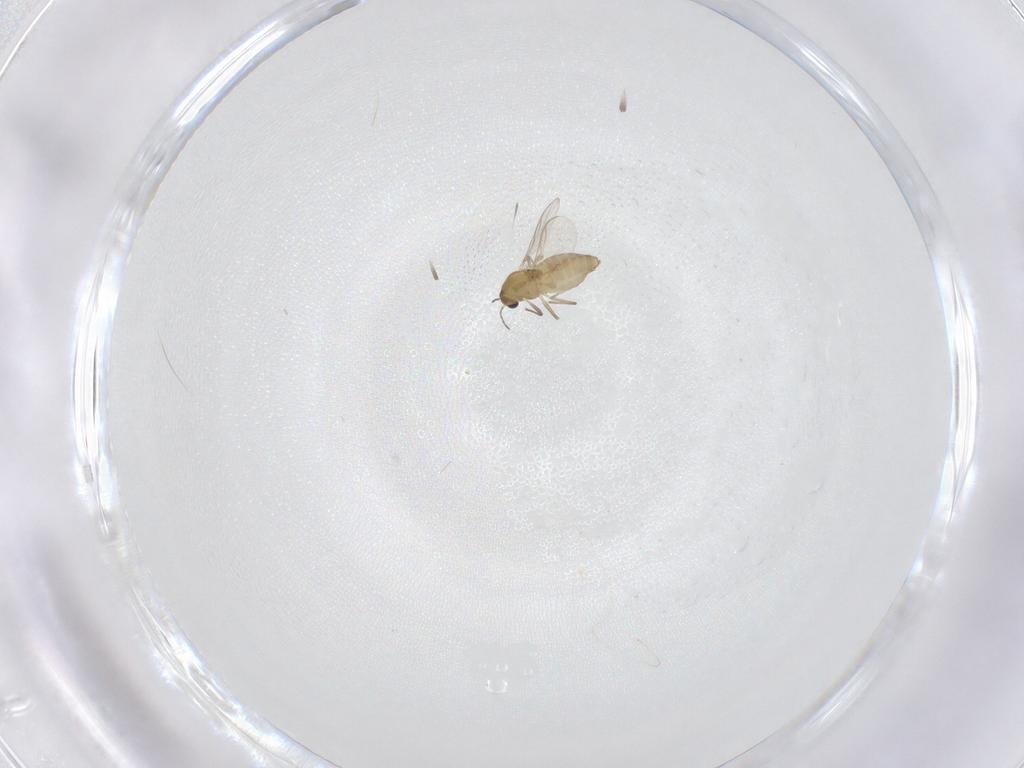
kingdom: Animalia
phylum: Arthropoda
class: Insecta
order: Diptera
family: Chironomidae
